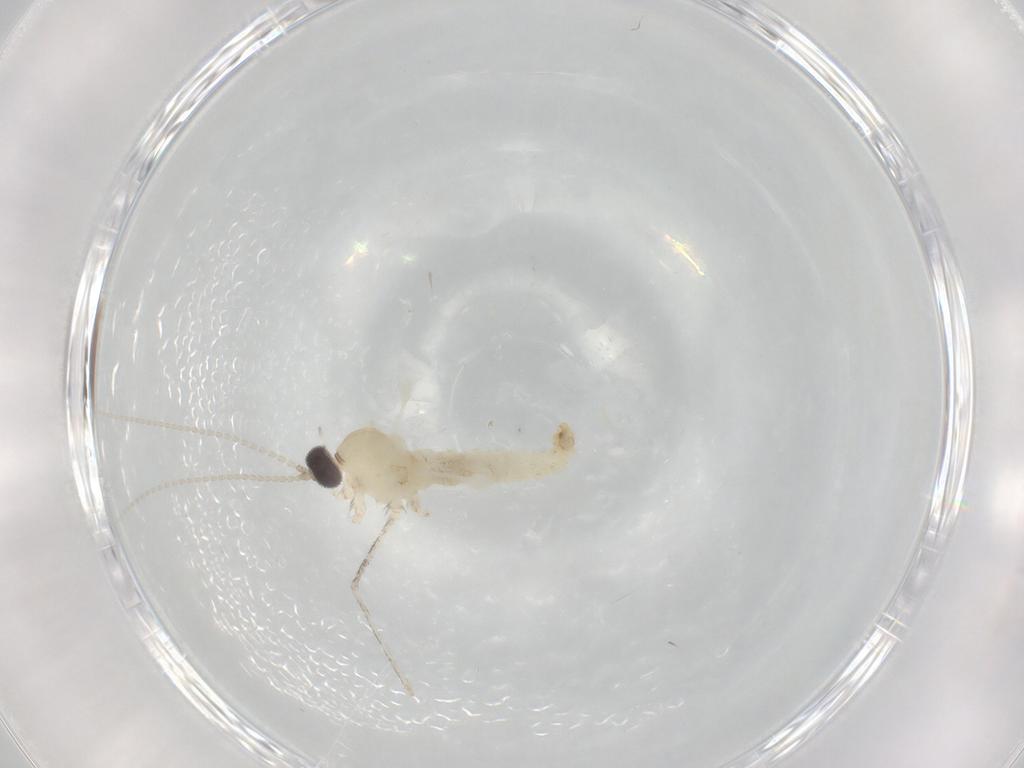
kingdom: Animalia
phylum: Arthropoda
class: Insecta
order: Diptera
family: Cecidomyiidae
